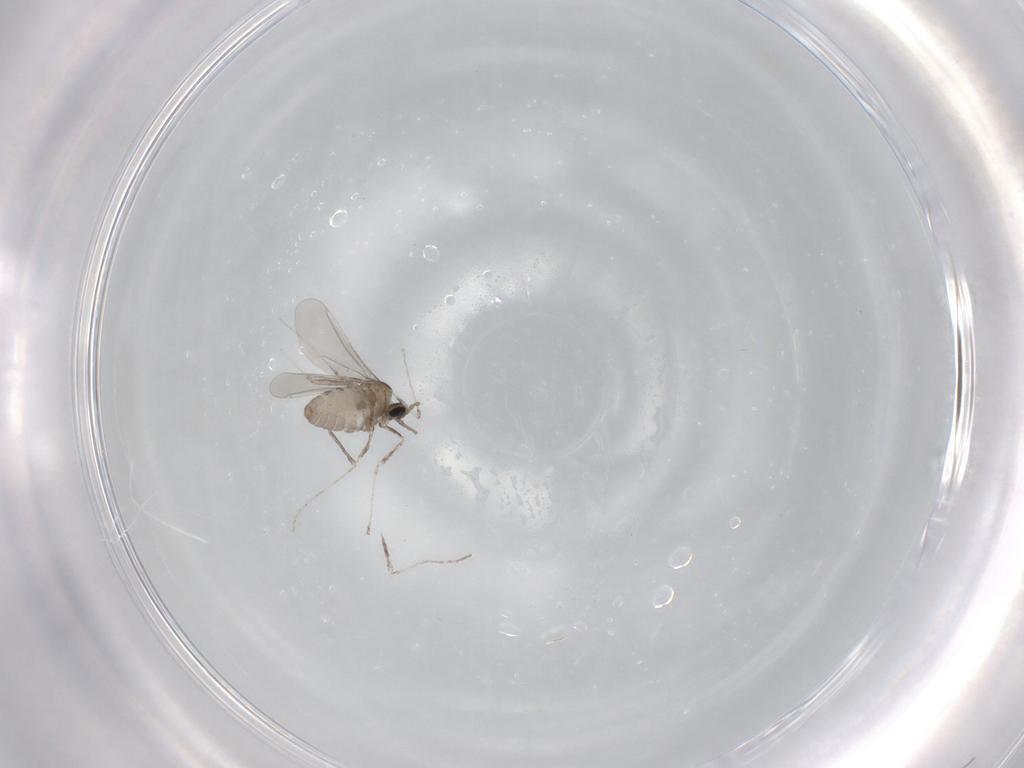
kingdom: Animalia
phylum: Arthropoda
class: Insecta
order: Diptera
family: Cecidomyiidae
